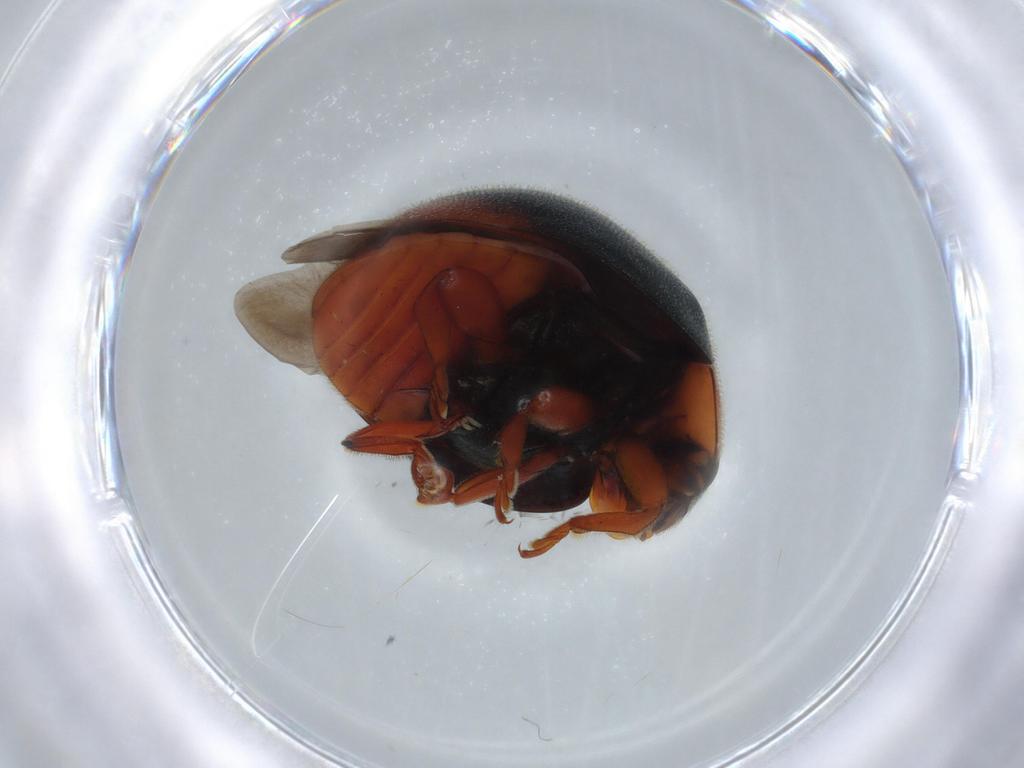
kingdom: Animalia
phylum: Arthropoda
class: Insecta
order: Coleoptera
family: Coccinellidae
